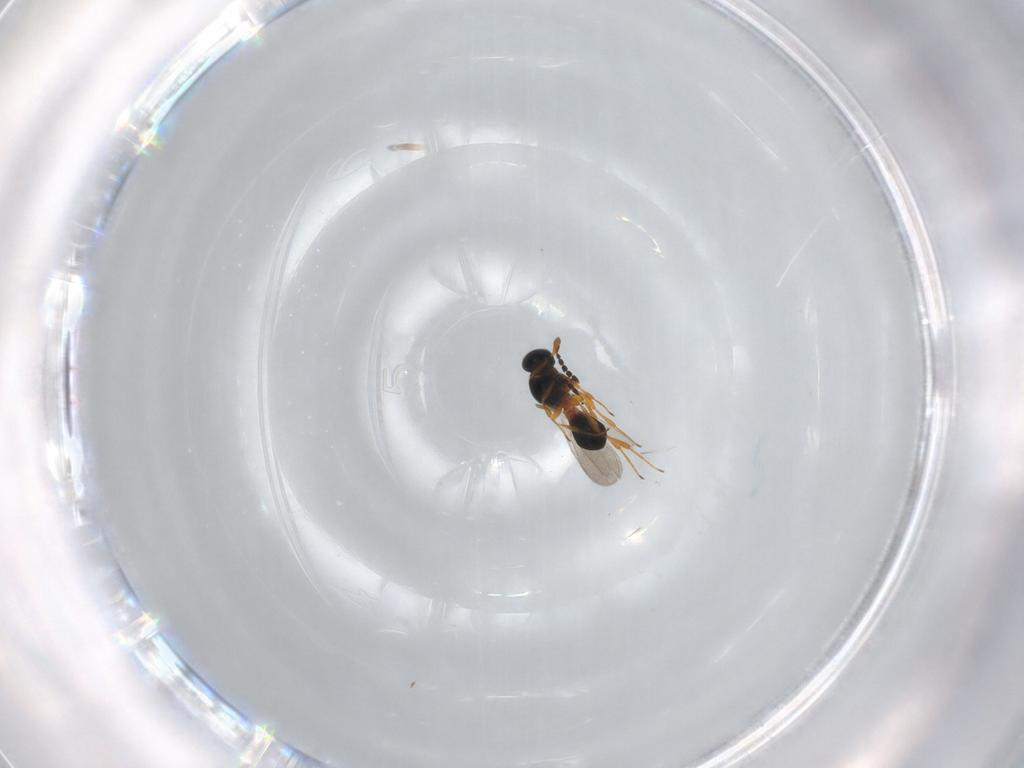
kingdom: Animalia
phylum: Arthropoda
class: Insecta
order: Hymenoptera
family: Platygastridae
